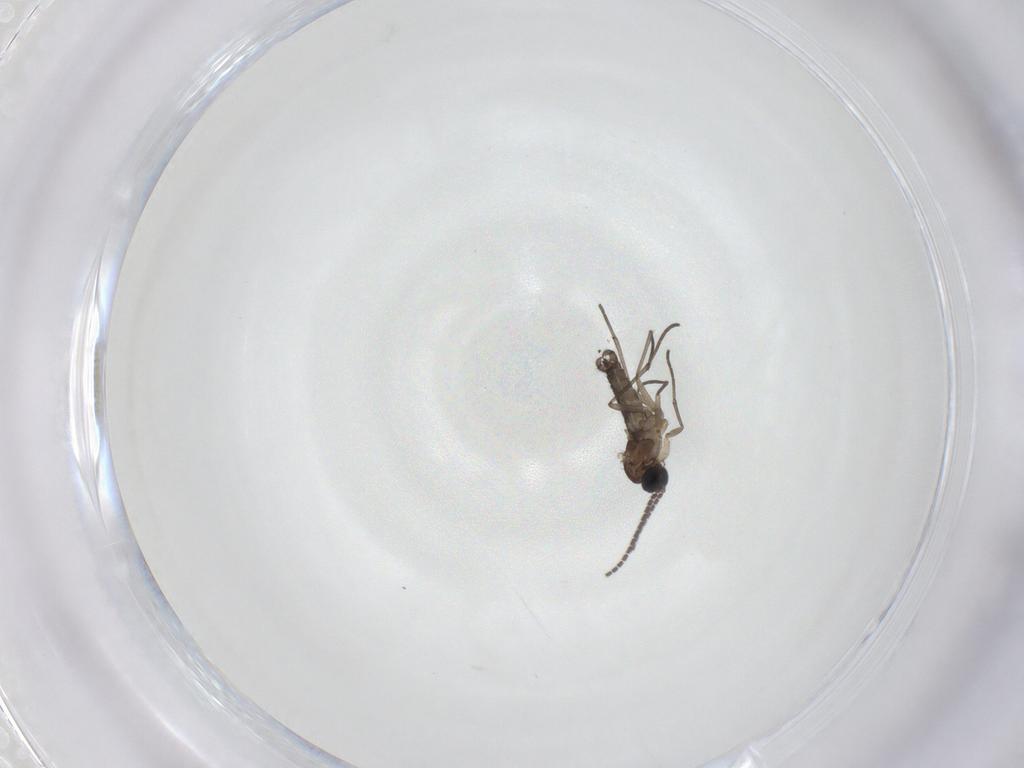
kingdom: Animalia
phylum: Arthropoda
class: Insecta
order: Diptera
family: Sciaridae
